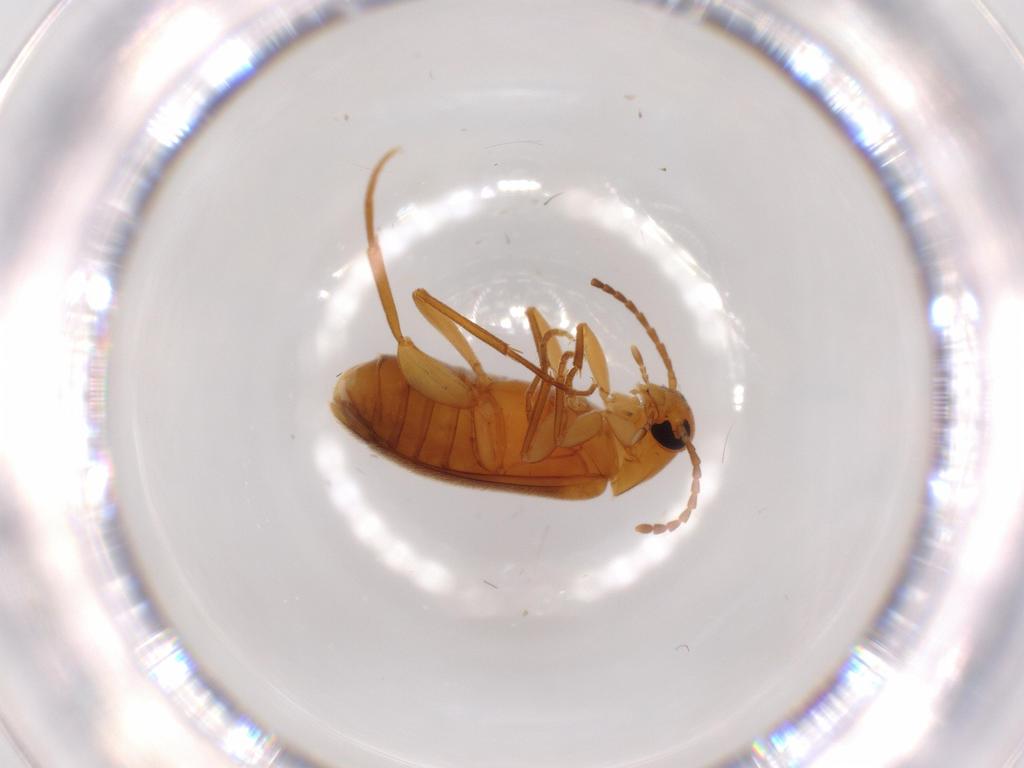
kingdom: Animalia
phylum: Arthropoda
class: Insecta
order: Coleoptera
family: Scraptiidae
